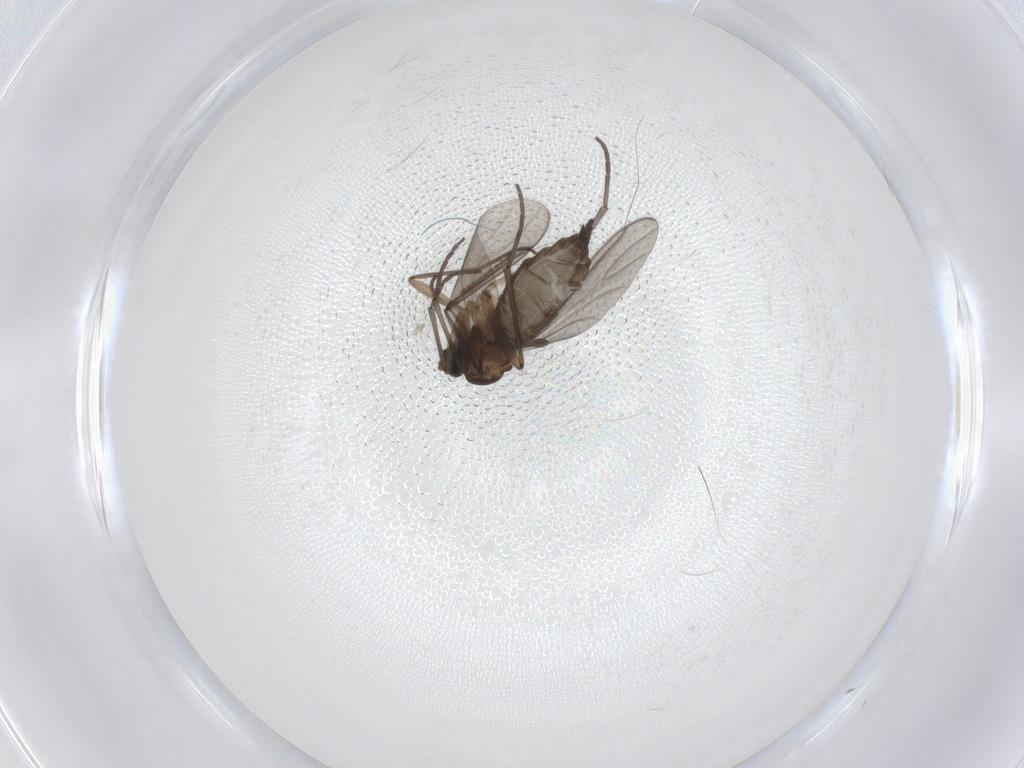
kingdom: Animalia
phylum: Arthropoda
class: Insecta
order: Diptera
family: Psychodidae
